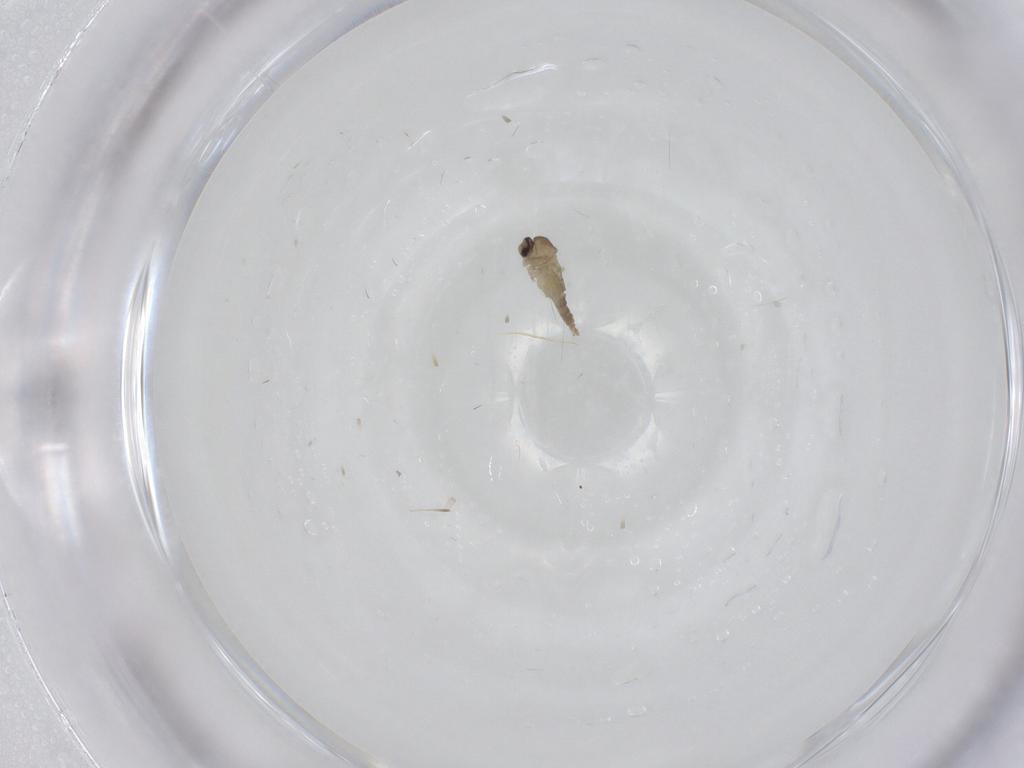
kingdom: Animalia
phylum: Arthropoda
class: Insecta
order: Diptera
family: Cecidomyiidae
